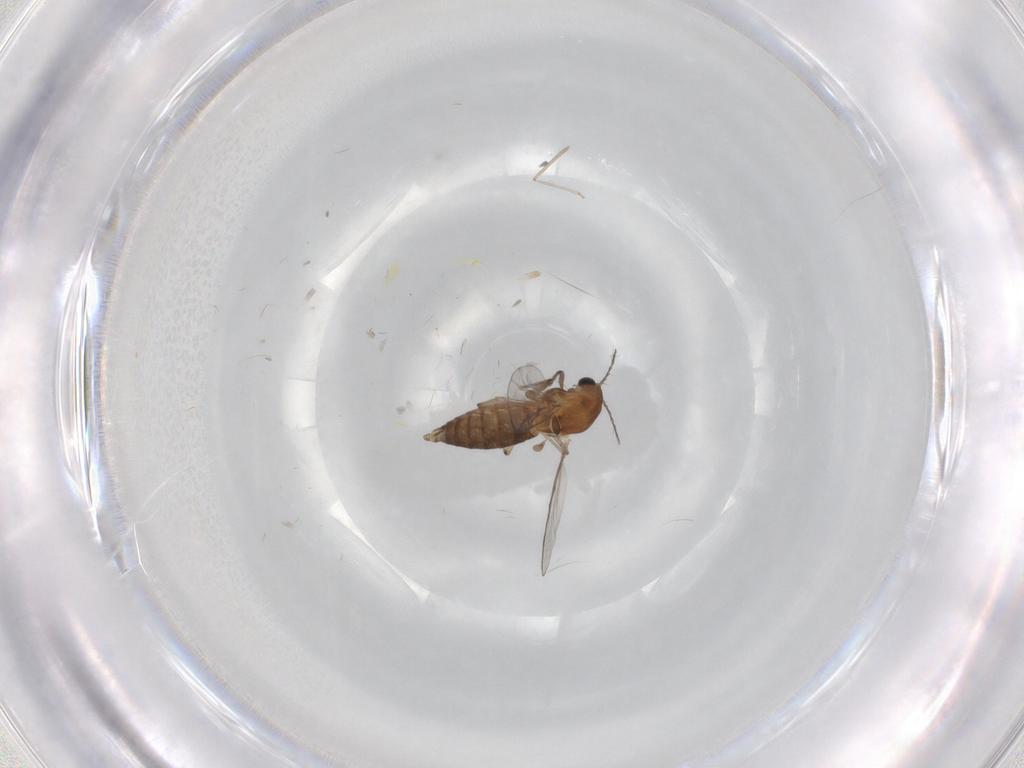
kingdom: Animalia
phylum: Arthropoda
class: Insecta
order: Diptera
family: Chironomidae
